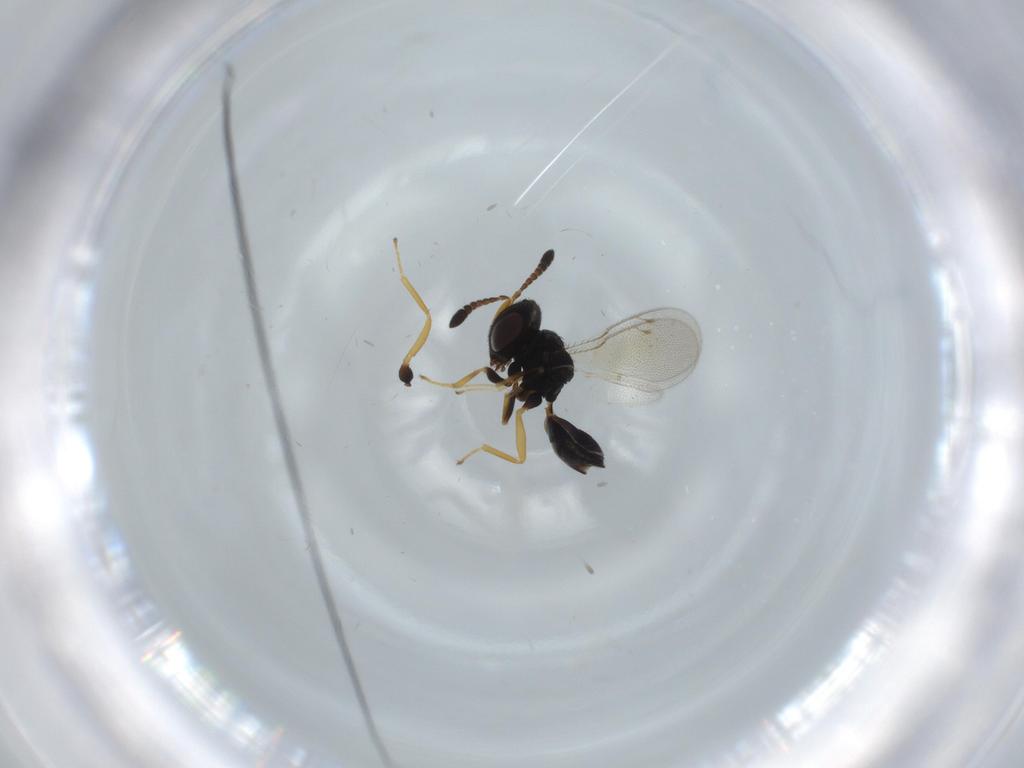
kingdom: Animalia
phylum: Arthropoda
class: Insecta
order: Hymenoptera
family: Pteromalidae
